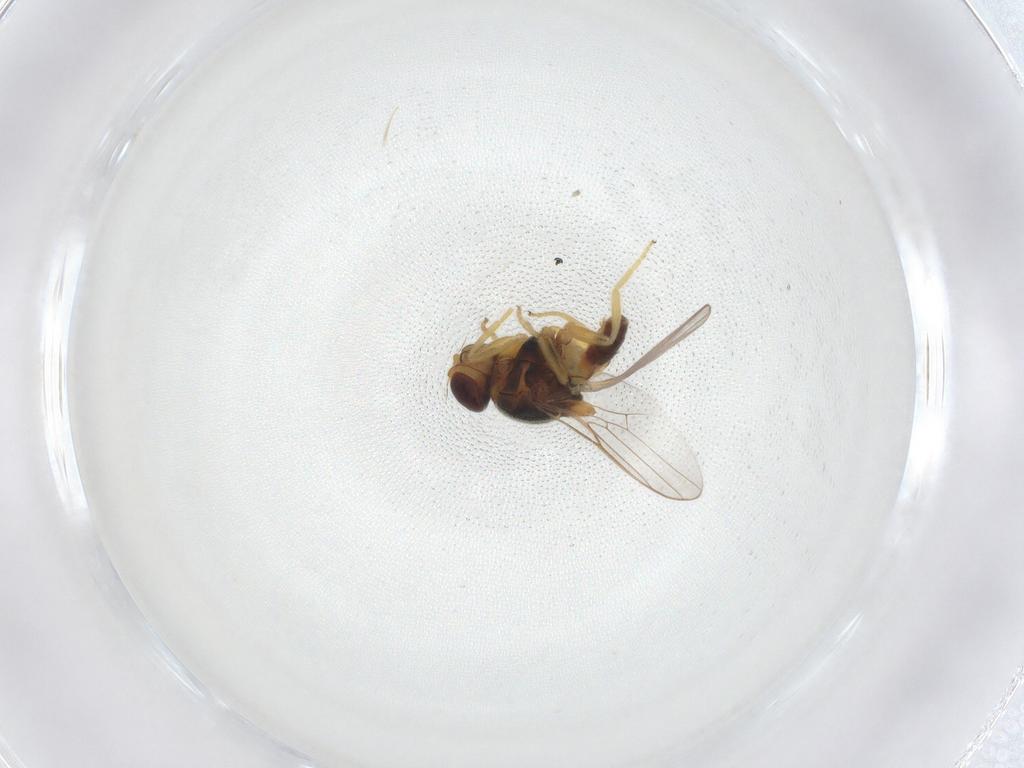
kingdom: Animalia
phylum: Arthropoda
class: Insecta
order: Diptera
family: Chloropidae
